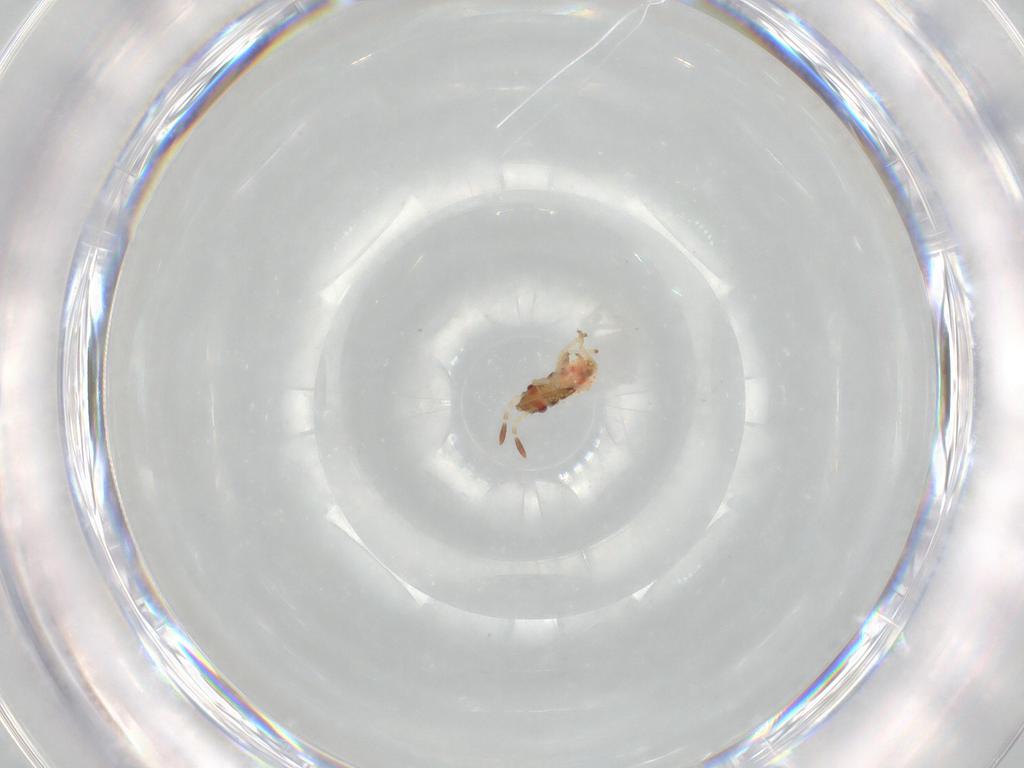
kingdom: Animalia
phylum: Arthropoda
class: Insecta
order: Hemiptera
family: Lygaeidae
